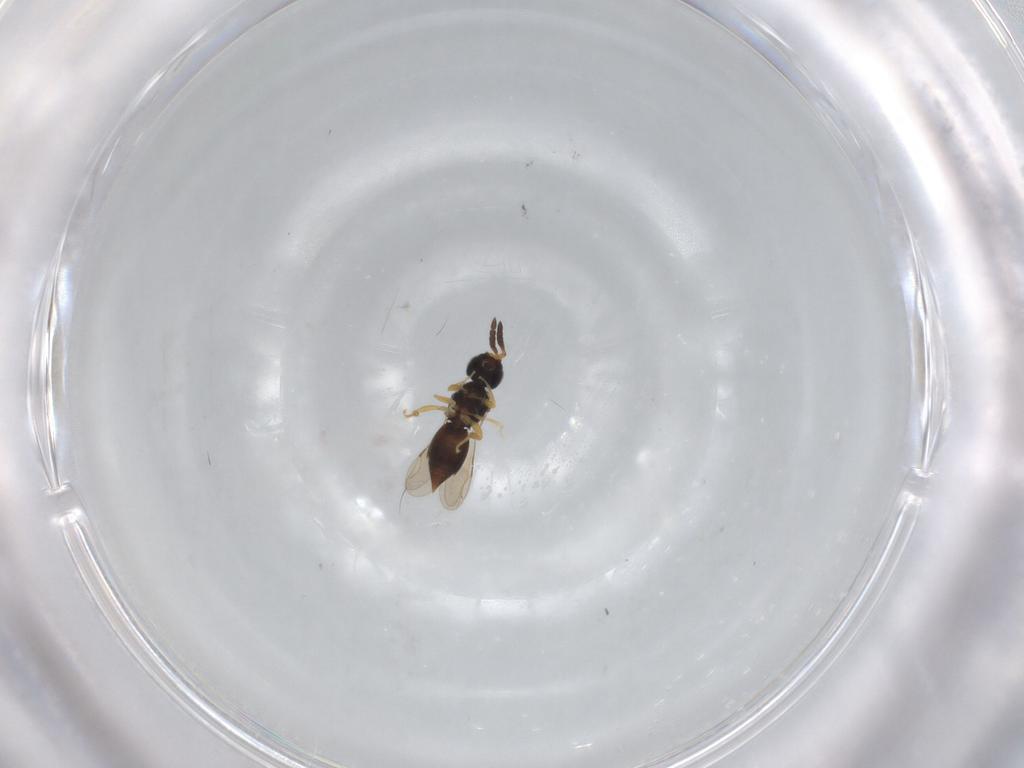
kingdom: Animalia
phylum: Arthropoda
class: Insecta
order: Hymenoptera
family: Ceraphronidae
